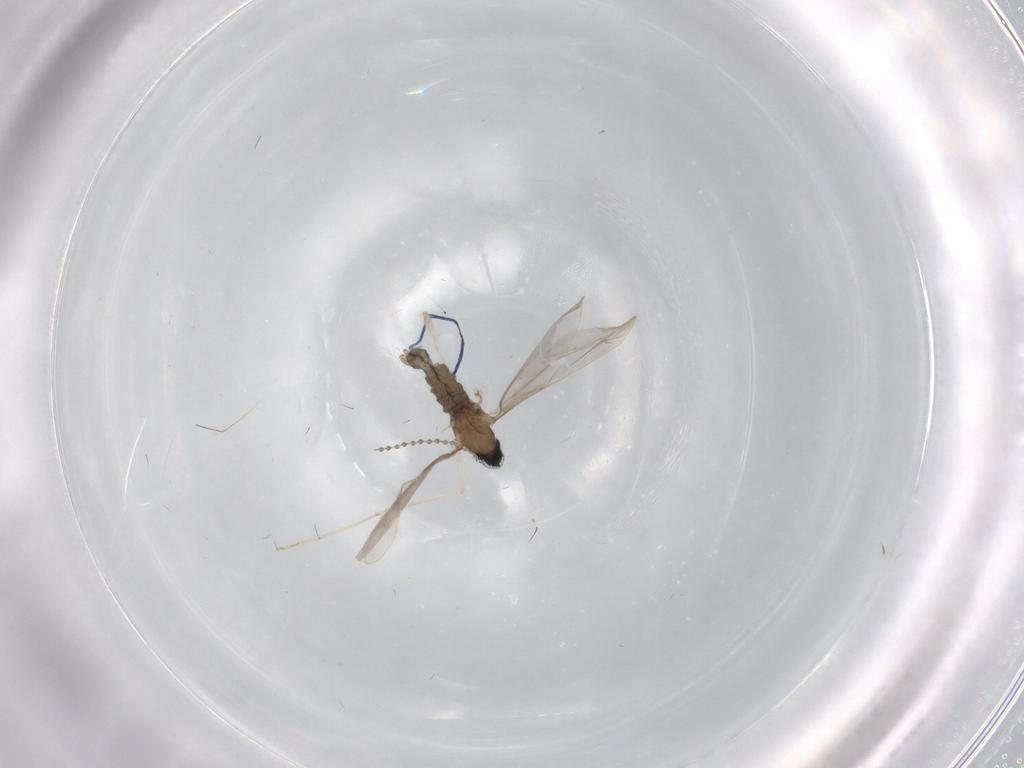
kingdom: Animalia
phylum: Arthropoda
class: Insecta
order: Diptera
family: Cecidomyiidae
